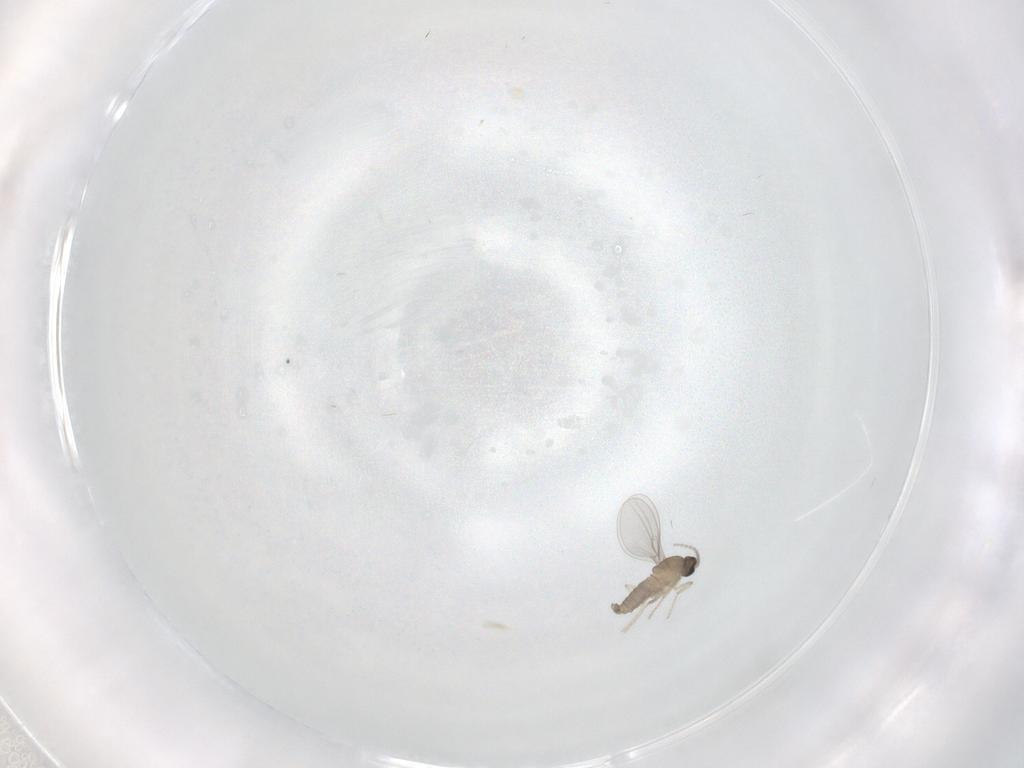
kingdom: Animalia
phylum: Arthropoda
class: Insecta
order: Diptera
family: Cecidomyiidae
